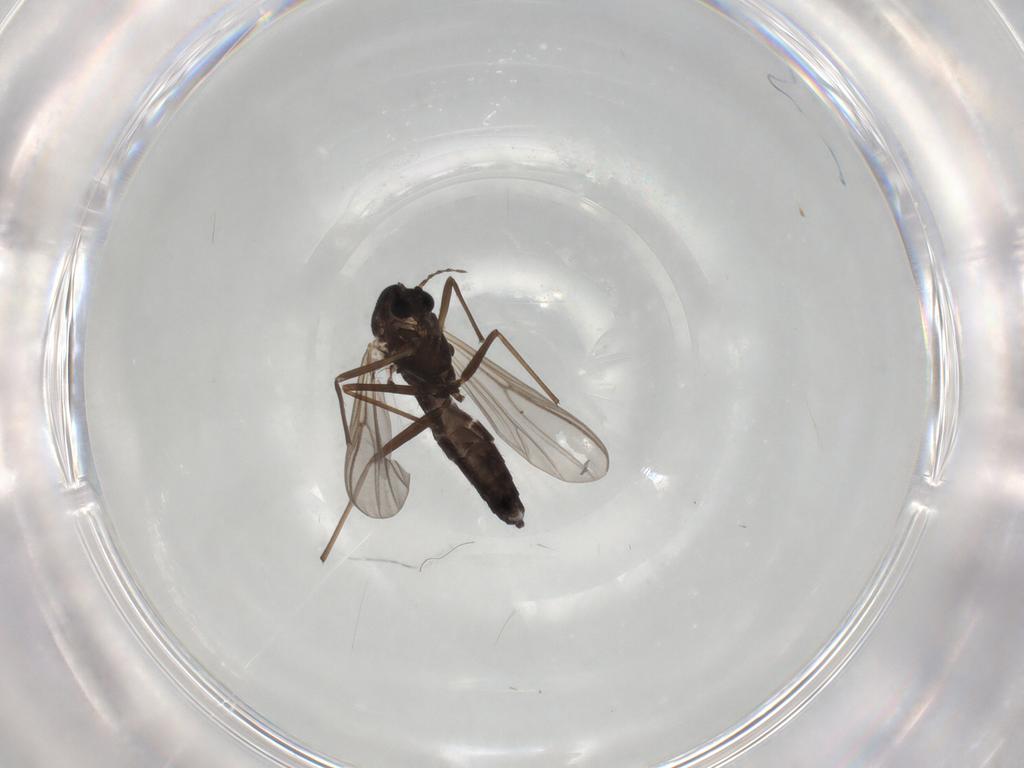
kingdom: Animalia
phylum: Arthropoda
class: Insecta
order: Diptera
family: Chironomidae
